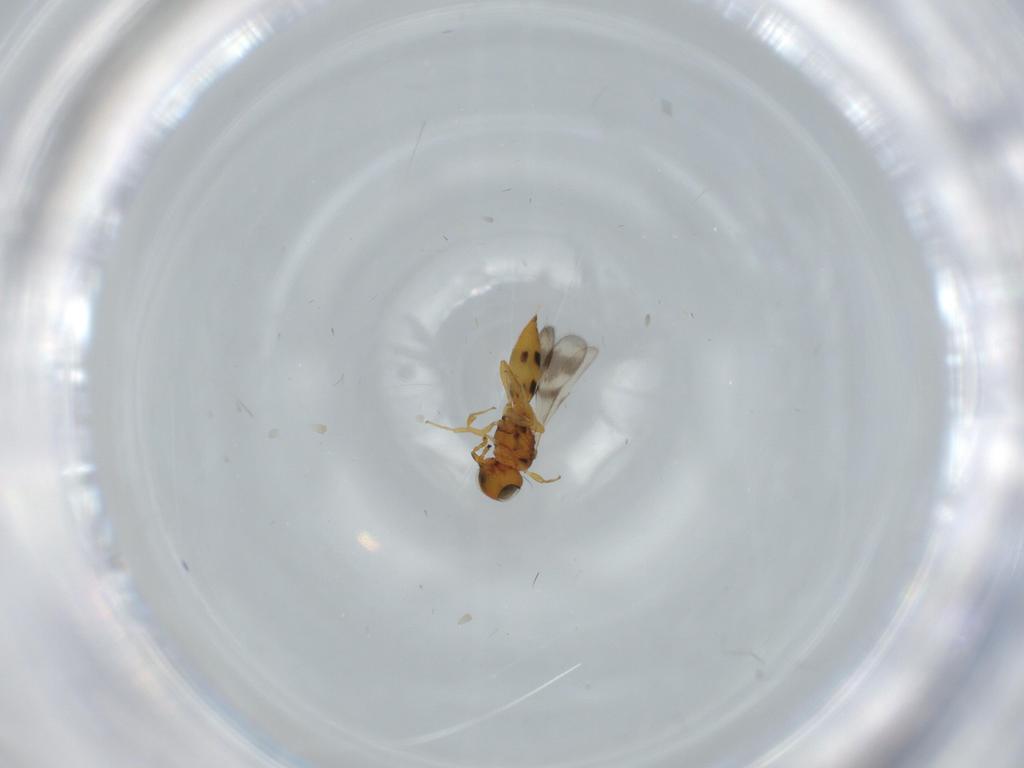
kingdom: Animalia
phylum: Arthropoda
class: Insecta
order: Hymenoptera
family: Scelionidae
